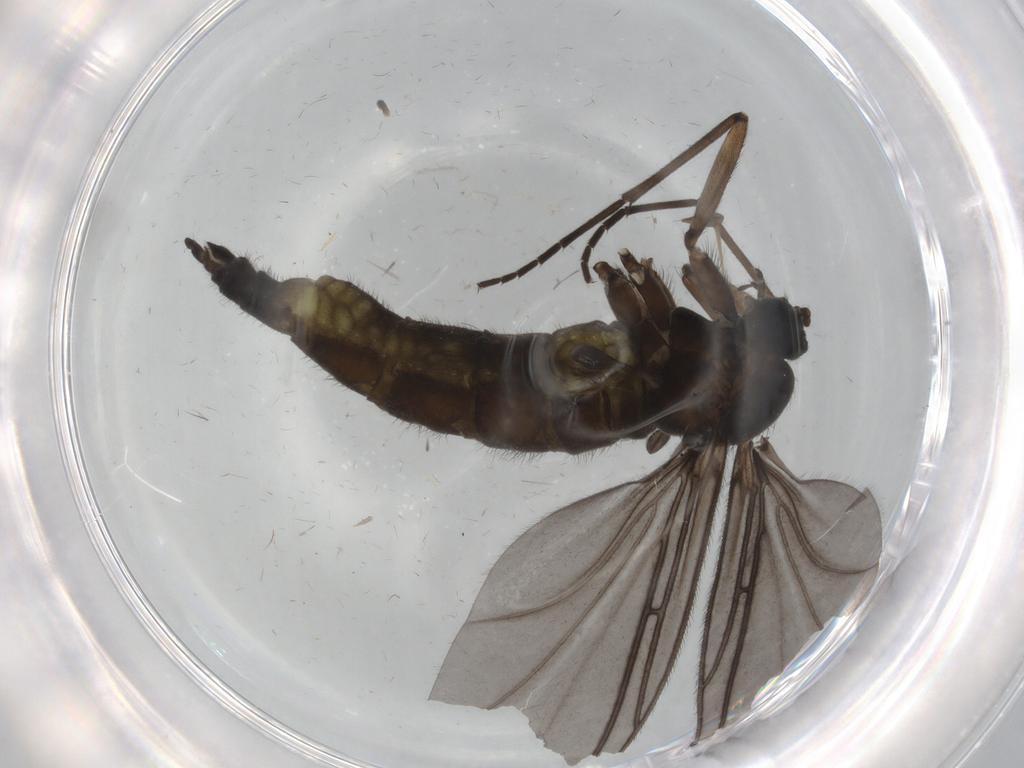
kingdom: Animalia
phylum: Arthropoda
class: Insecta
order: Diptera
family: Sciaridae
